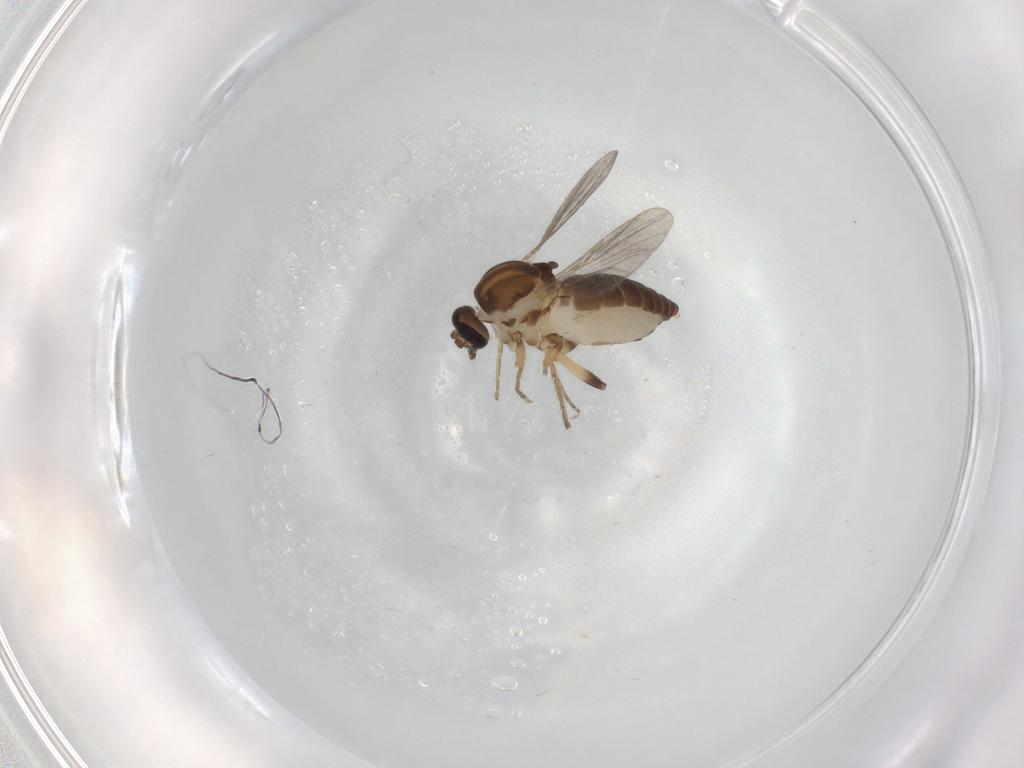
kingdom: Animalia
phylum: Arthropoda
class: Insecta
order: Diptera
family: Ceratopogonidae
